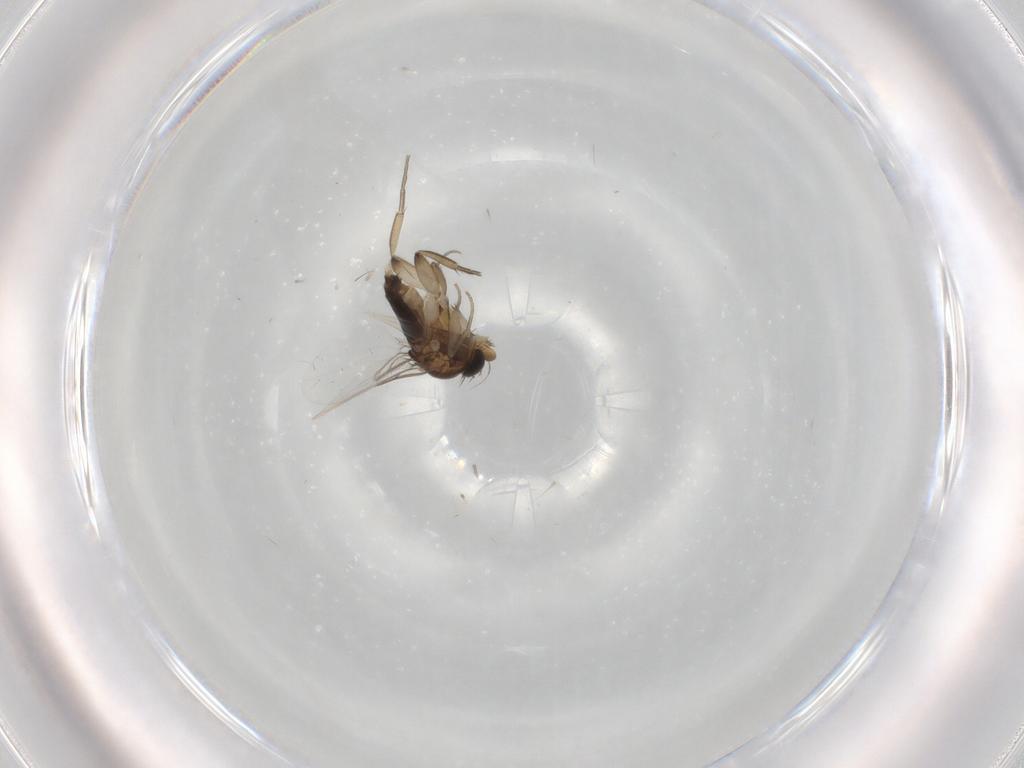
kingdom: Animalia
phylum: Arthropoda
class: Insecta
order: Diptera
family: Phoridae
